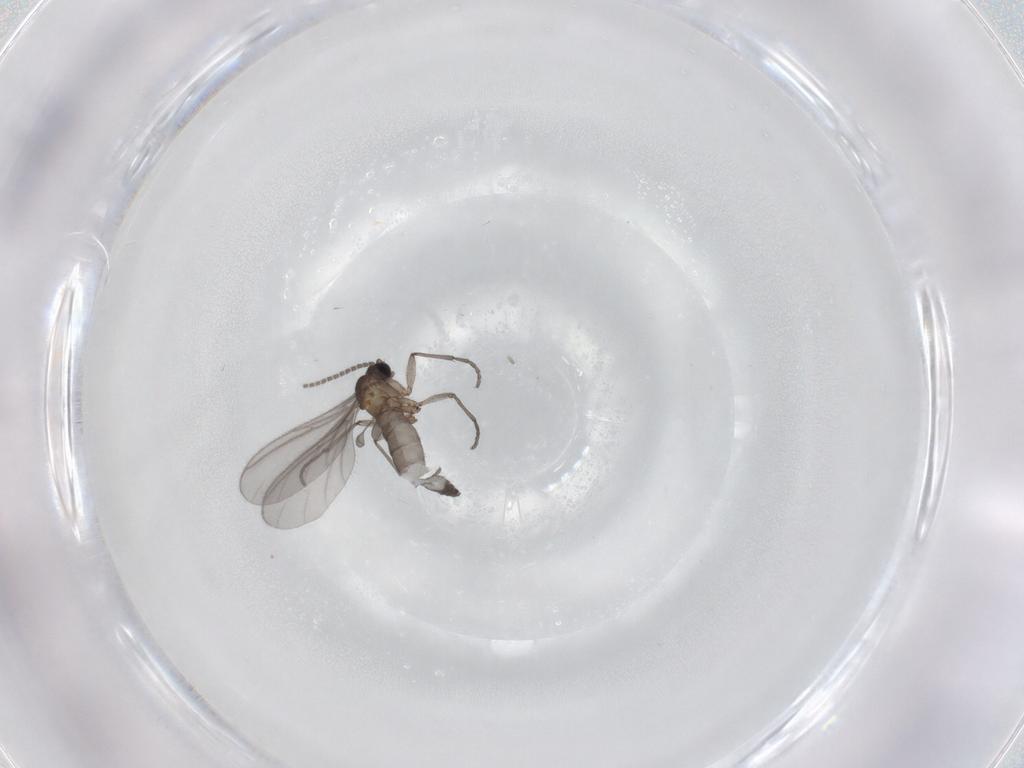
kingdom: Animalia
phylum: Arthropoda
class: Insecta
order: Diptera
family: Sciaridae
